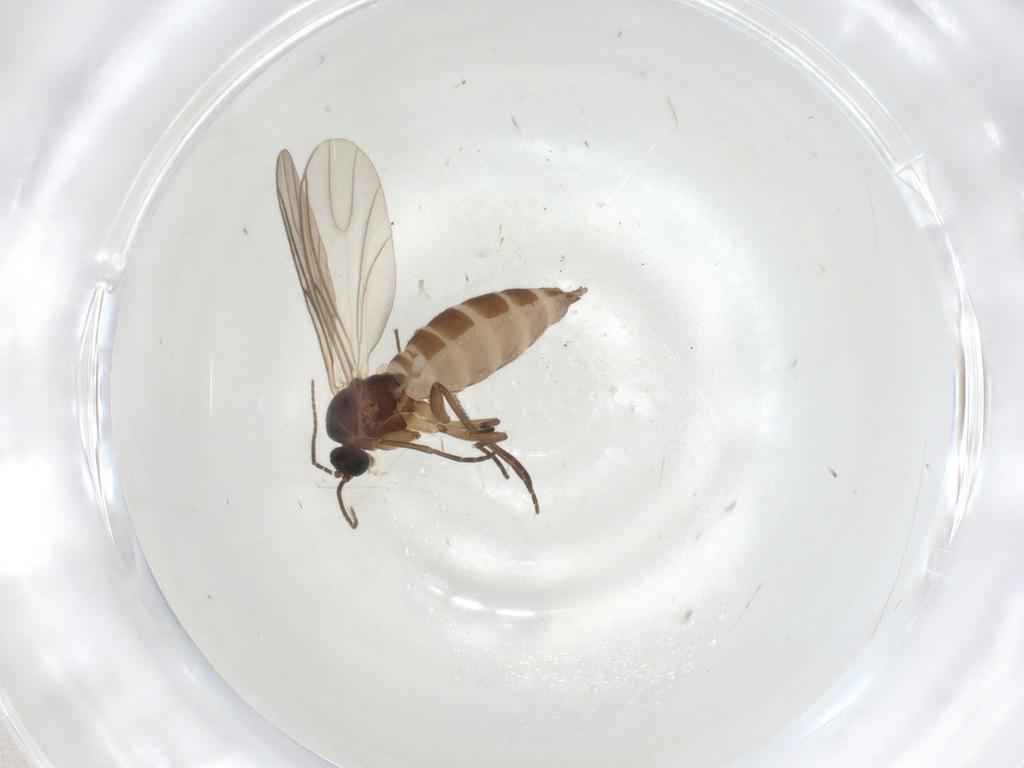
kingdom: Animalia
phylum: Arthropoda
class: Insecta
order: Diptera
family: Sciaridae
